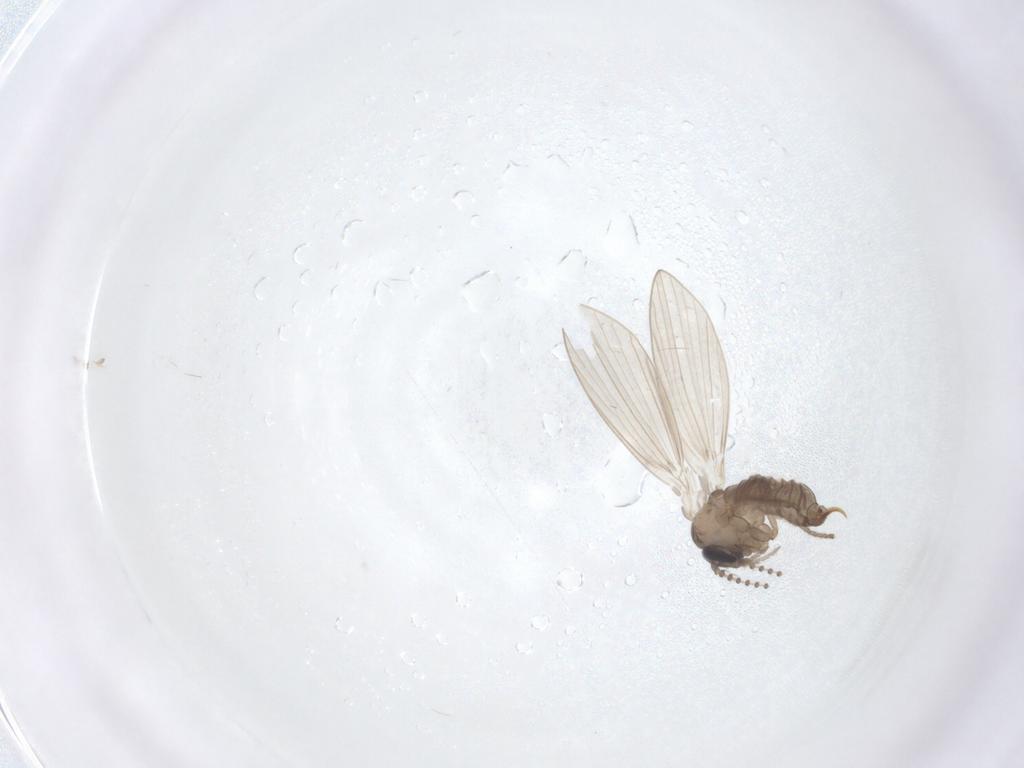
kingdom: Animalia
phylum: Arthropoda
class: Insecta
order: Diptera
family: Psychodidae
